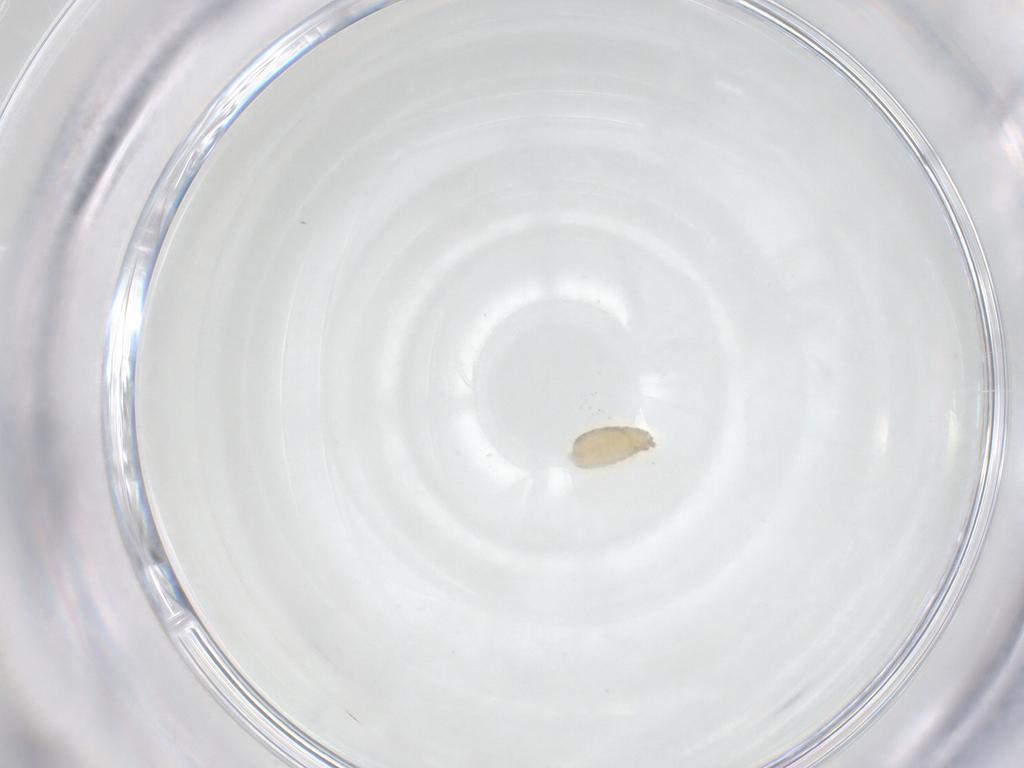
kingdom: Animalia
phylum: Arthropoda
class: Insecta
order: Diptera
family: Chironomidae
